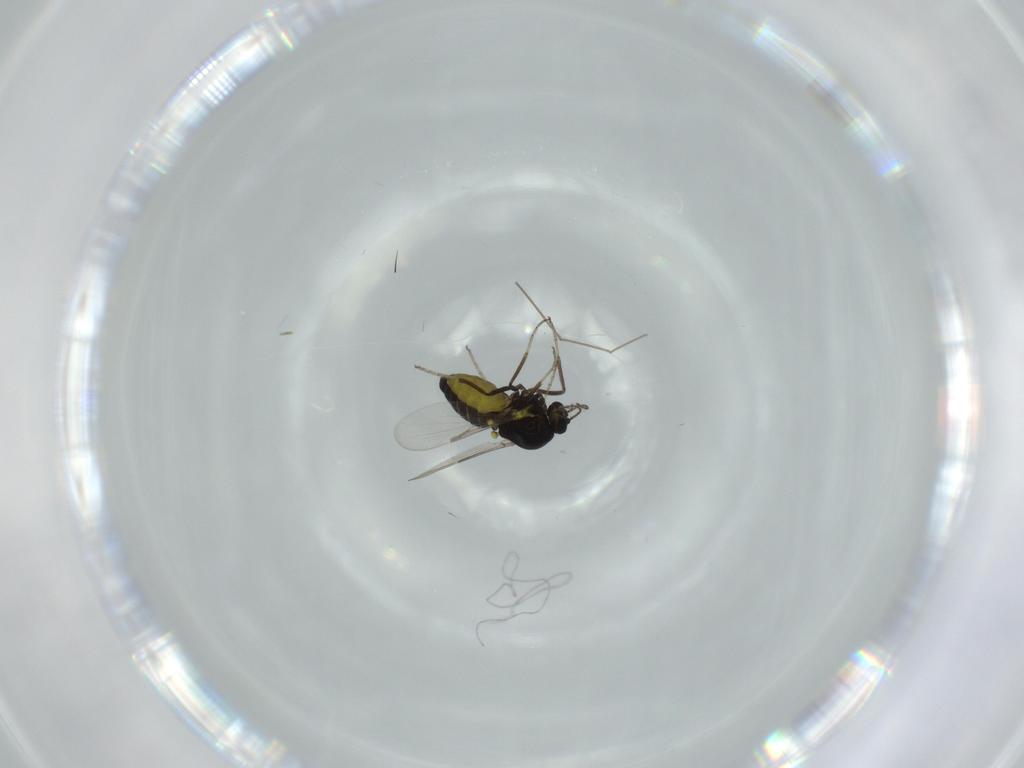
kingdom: Animalia
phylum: Arthropoda
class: Insecta
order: Diptera
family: Ceratopogonidae
